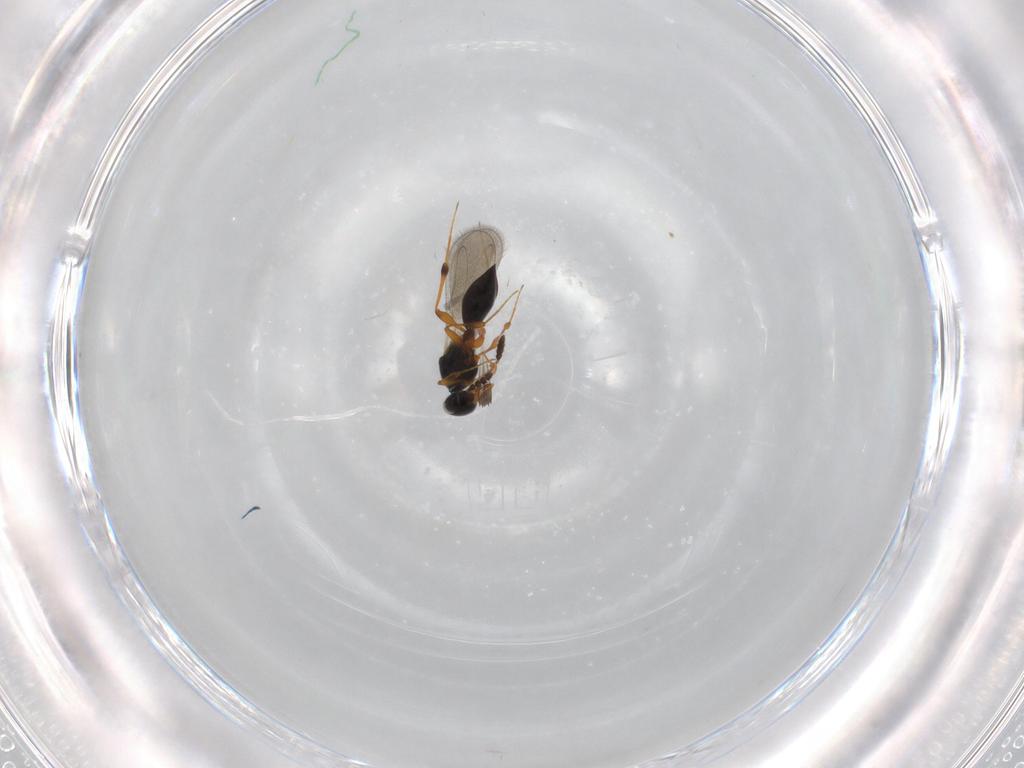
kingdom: Animalia
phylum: Arthropoda
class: Insecta
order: Hymenoptera
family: Platygastridae
